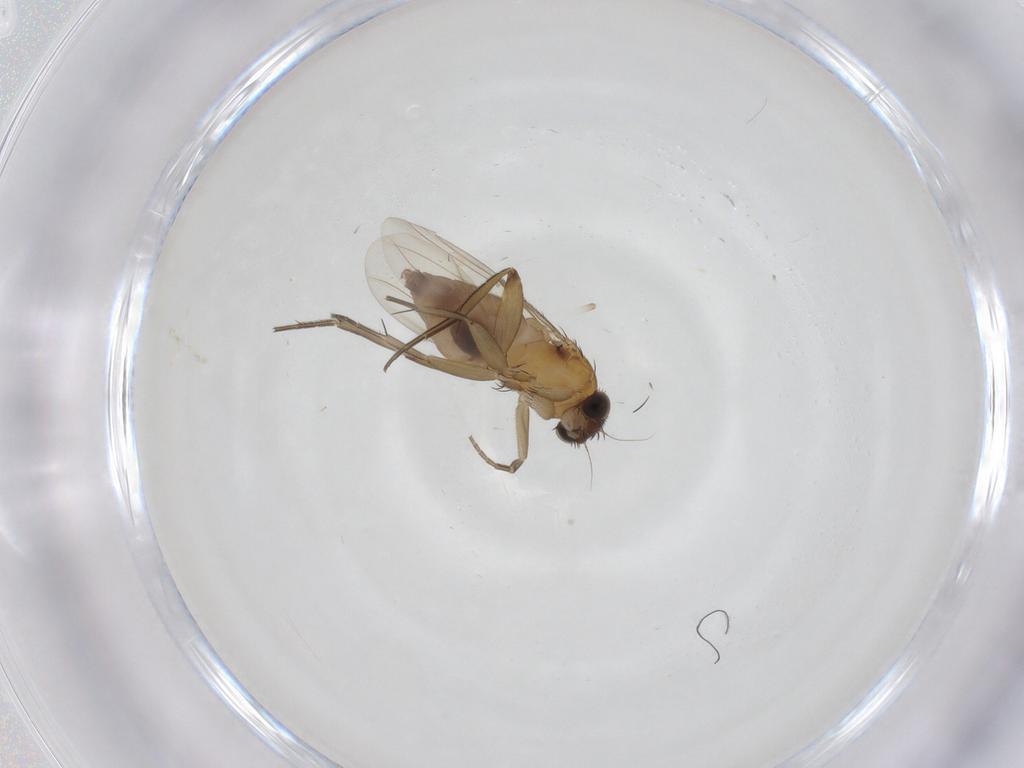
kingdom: Animalia
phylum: Arthropoda
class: Insecta
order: Diptera
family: Phoridae
